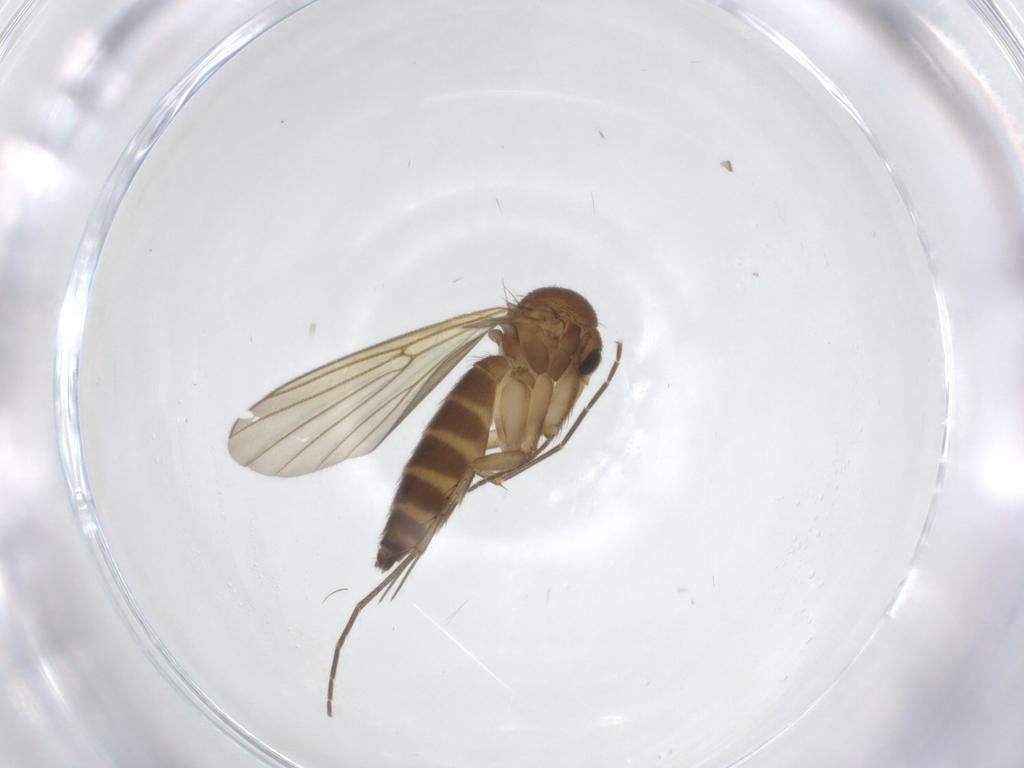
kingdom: Animalia
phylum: Arthropoda
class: Insecta
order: Diptera
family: Mycetophilidae
